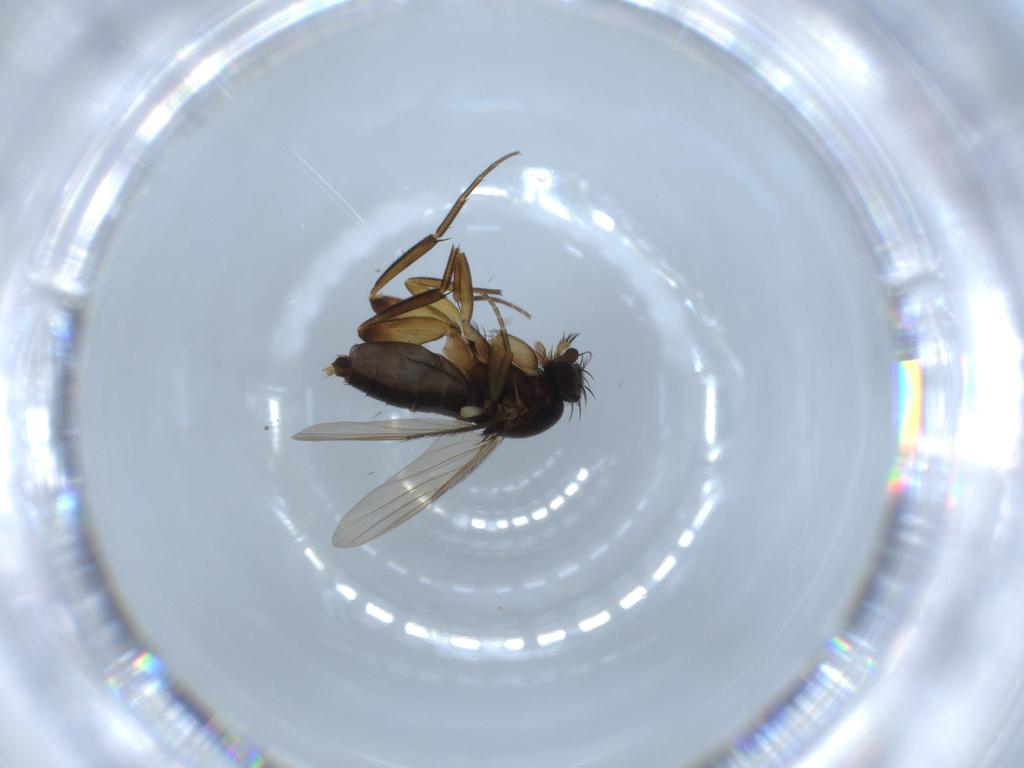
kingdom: Animalia
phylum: Arthropoda
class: Insecta
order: Diptera
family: Phoridae
